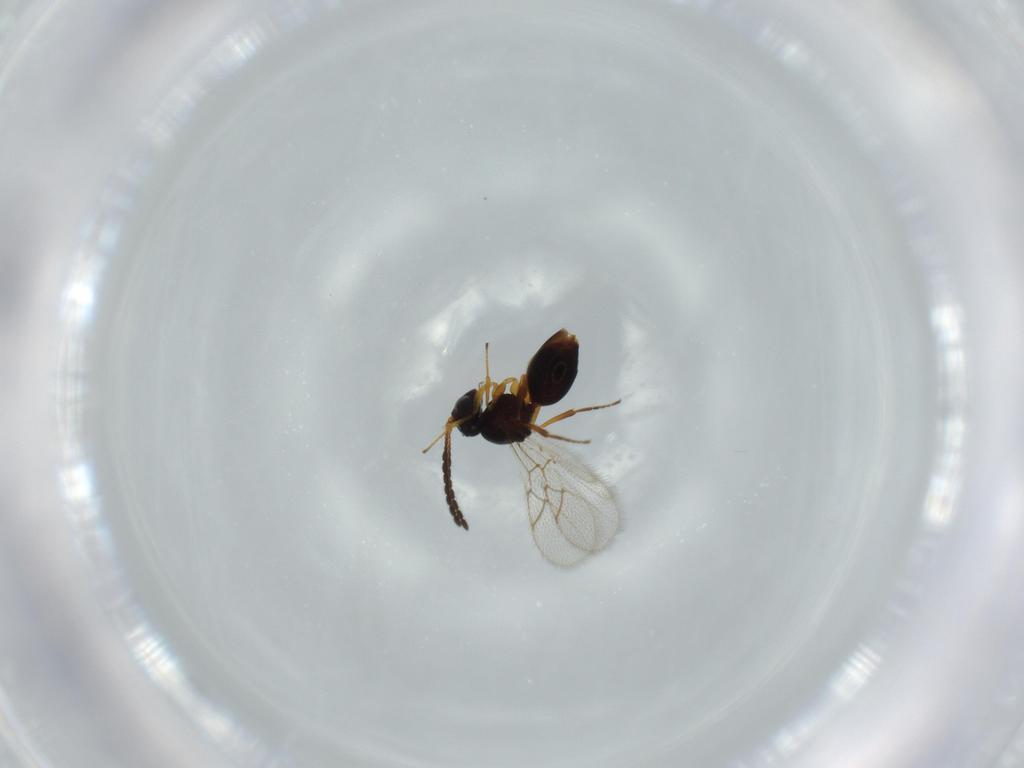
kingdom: Animalia
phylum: Arthropoda
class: Insecta
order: Hymenoptera
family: Figitidae
